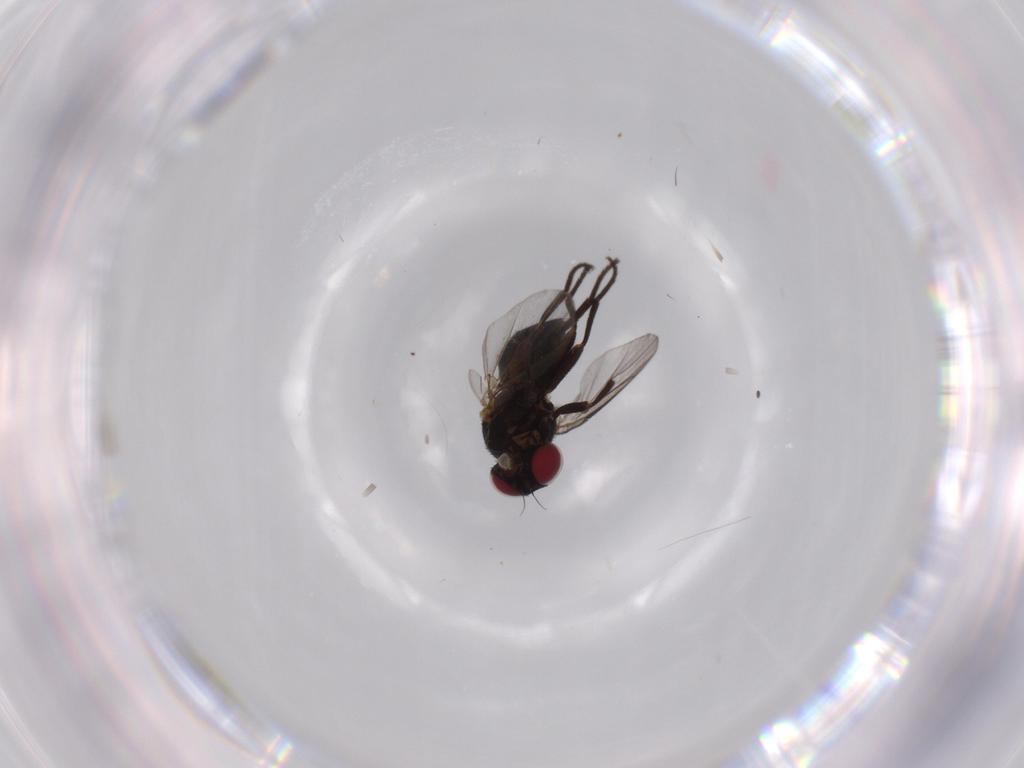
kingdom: Animalia
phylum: Arthropoda
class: Insecta
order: Diptera
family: Agromyzidae
